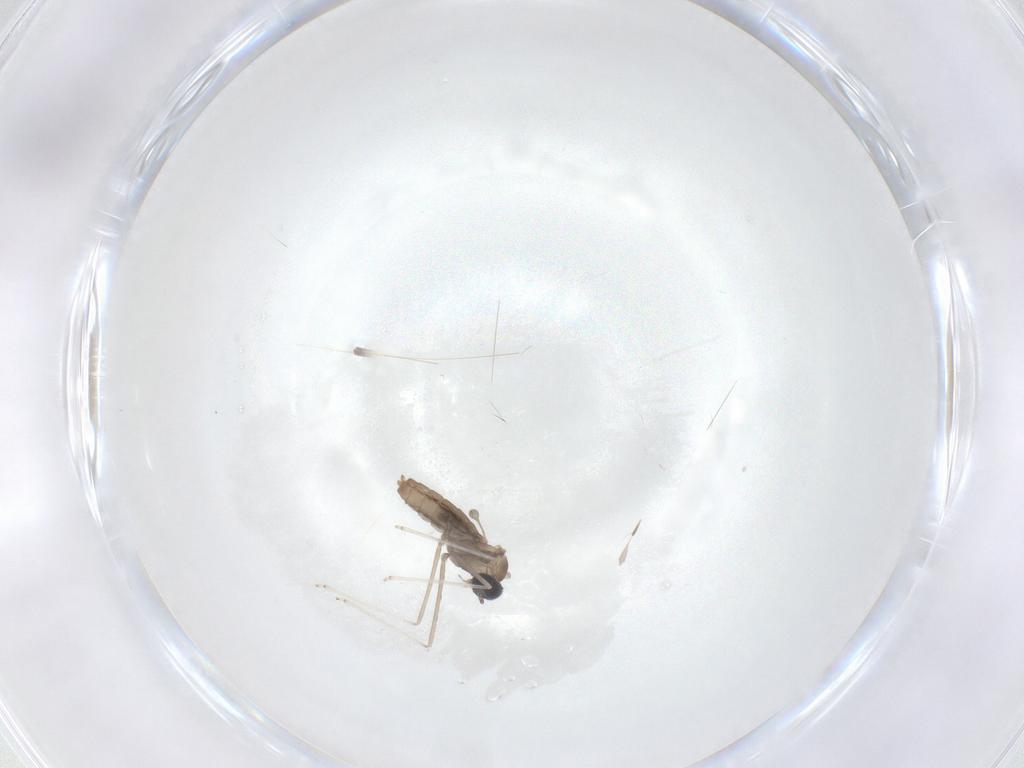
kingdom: Animalia
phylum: Arthropoda
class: Insecta
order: Diptera
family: Cecidomyiidae
